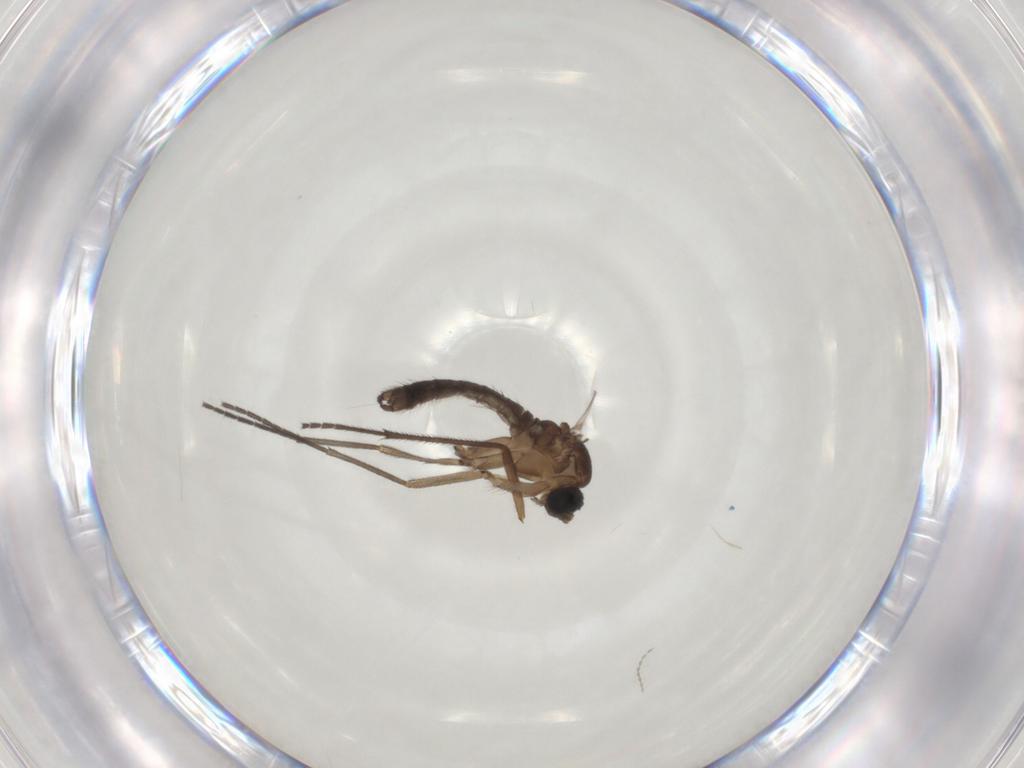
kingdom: Animalia
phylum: Arthropoda
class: Insecta
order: Diptera
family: Sciaridae
